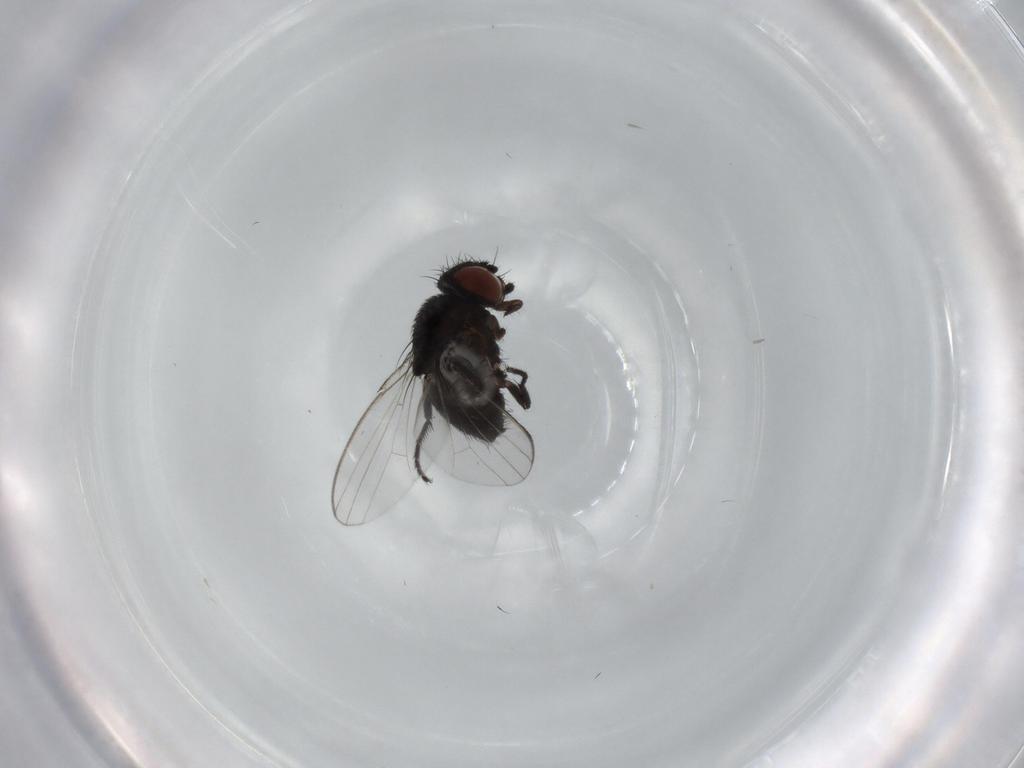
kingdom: Animalia
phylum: Arthropoda
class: Insecta
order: Diptera
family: Milichiidae
